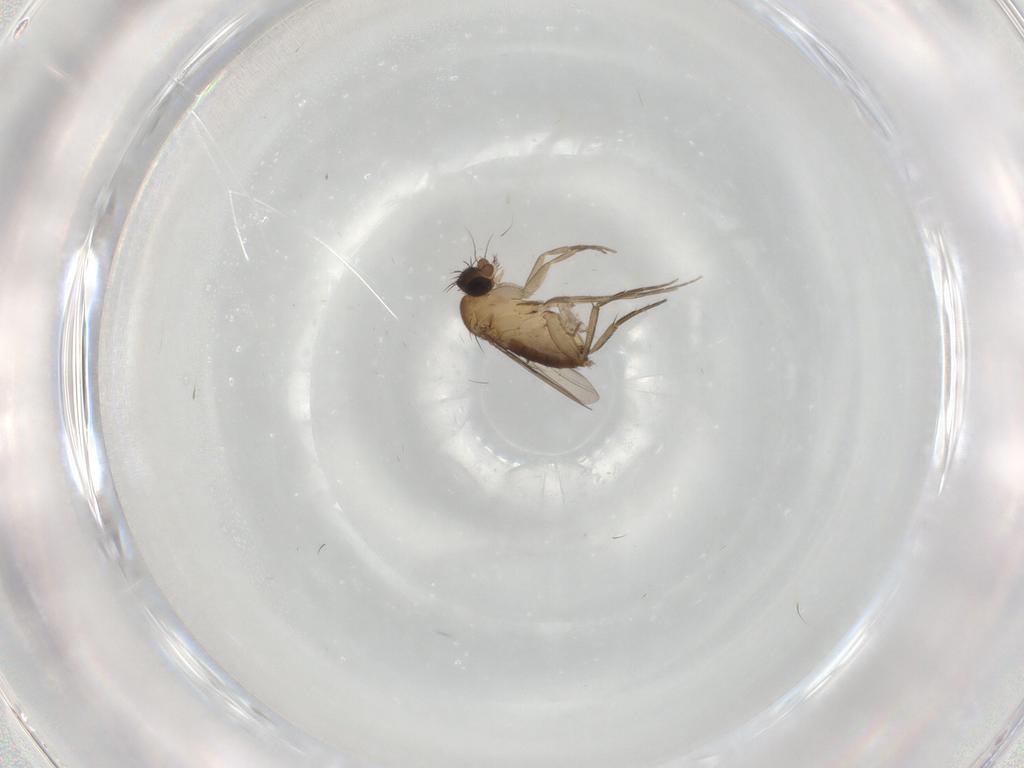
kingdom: Animalia
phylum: Arthropoda
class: Insecta
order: Diptera
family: Phoridae
